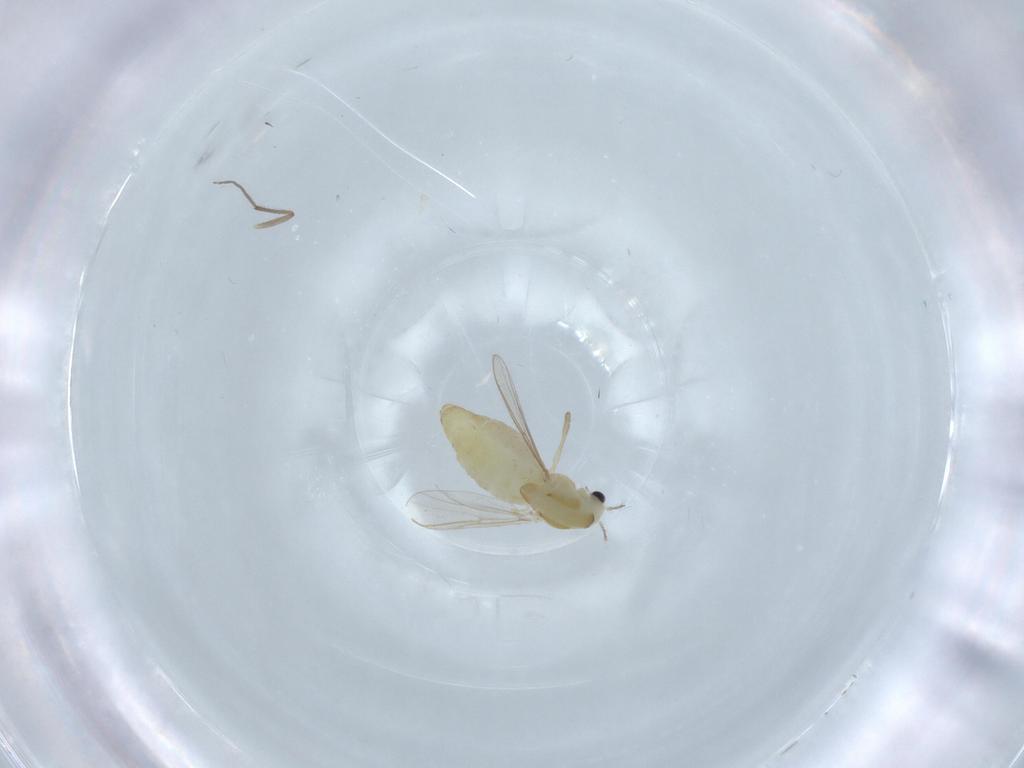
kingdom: Animalia
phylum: Arthropoda
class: Insecta
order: Diptera
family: Chironomidae
